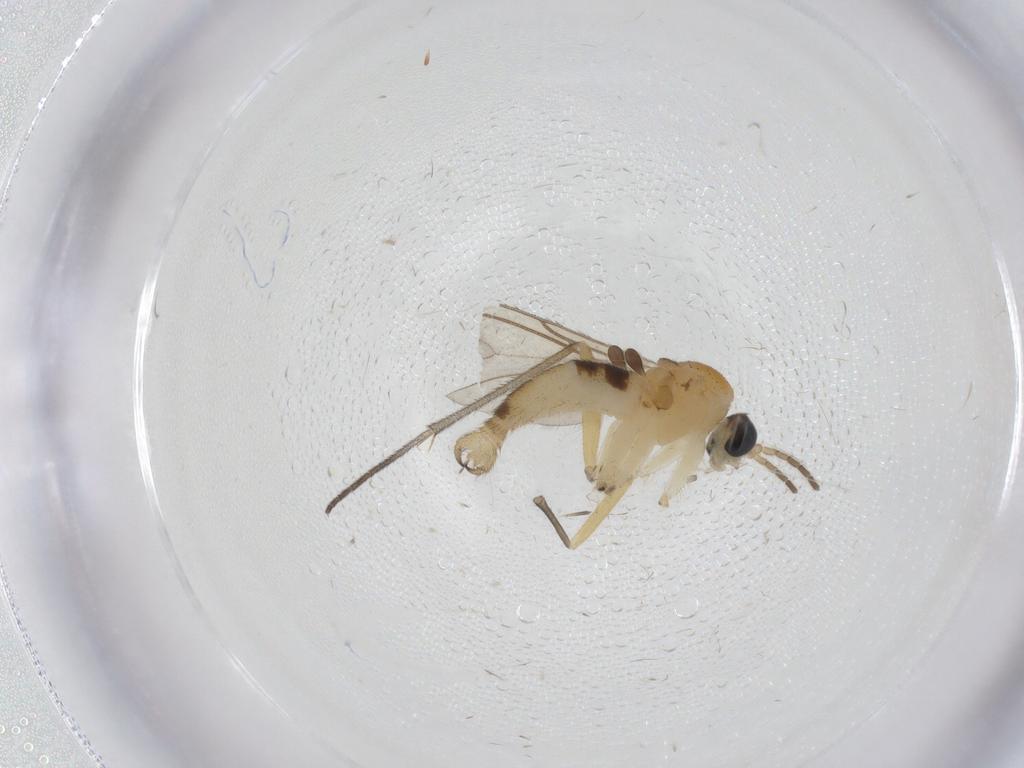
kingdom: Animalia
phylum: Arthropoda
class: Insecta
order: Diptera
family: Sciaridae
